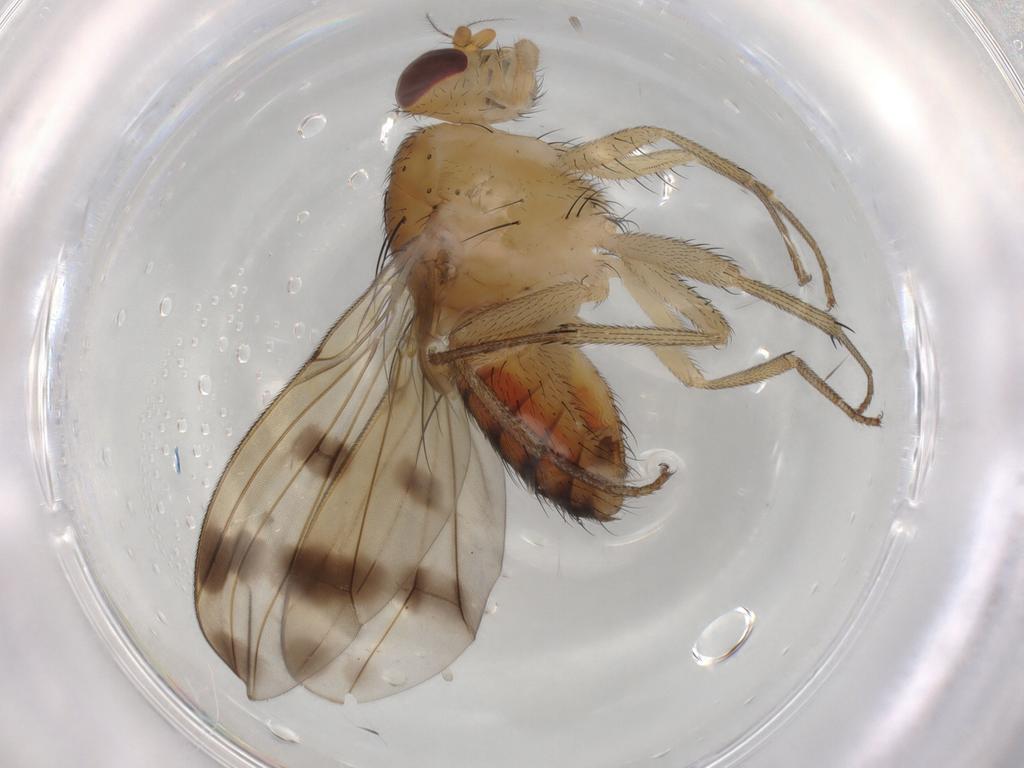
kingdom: Animalia
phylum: Arthropoda
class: Insecta
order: Diptera
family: Lauxaniidae
